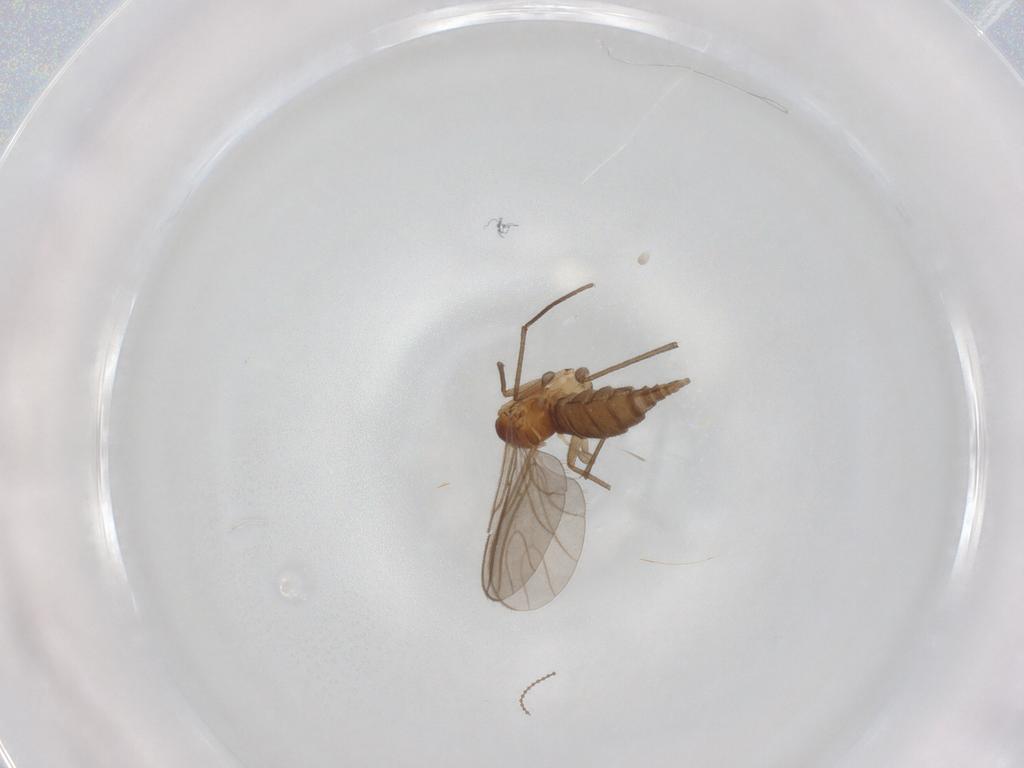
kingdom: Animalia
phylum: Arthropoda
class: Insecta
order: Diptera
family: Sciaridae
